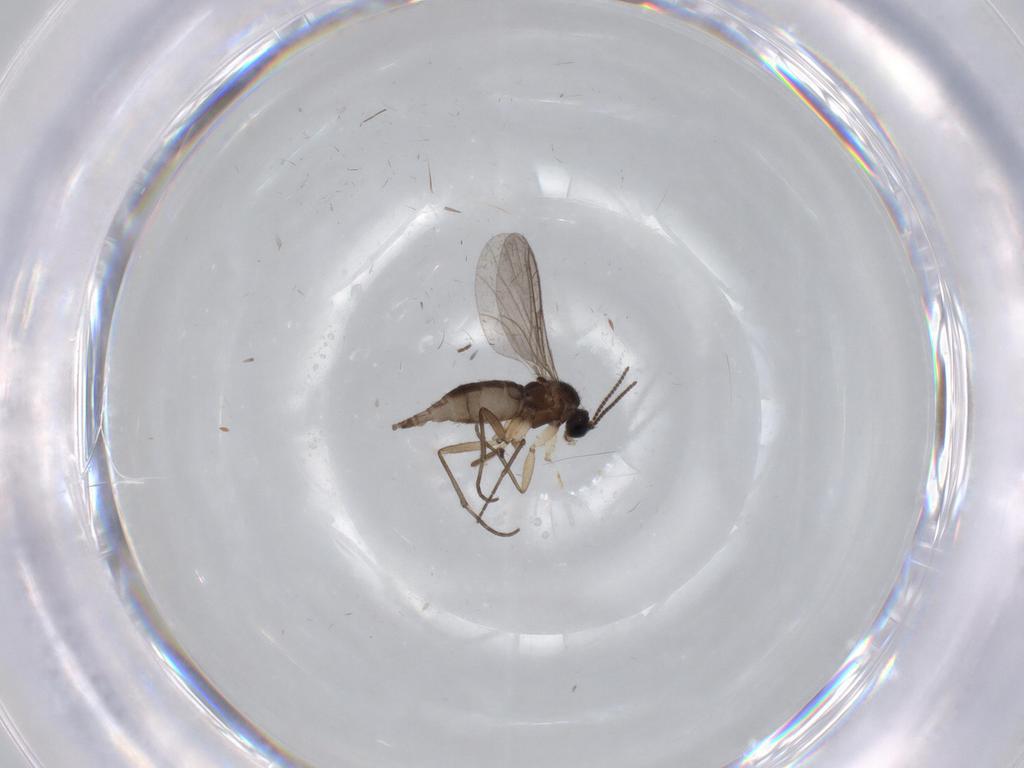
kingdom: Animalia
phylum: Arthropoda
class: Insecta
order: Diptera
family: Sciaridae
